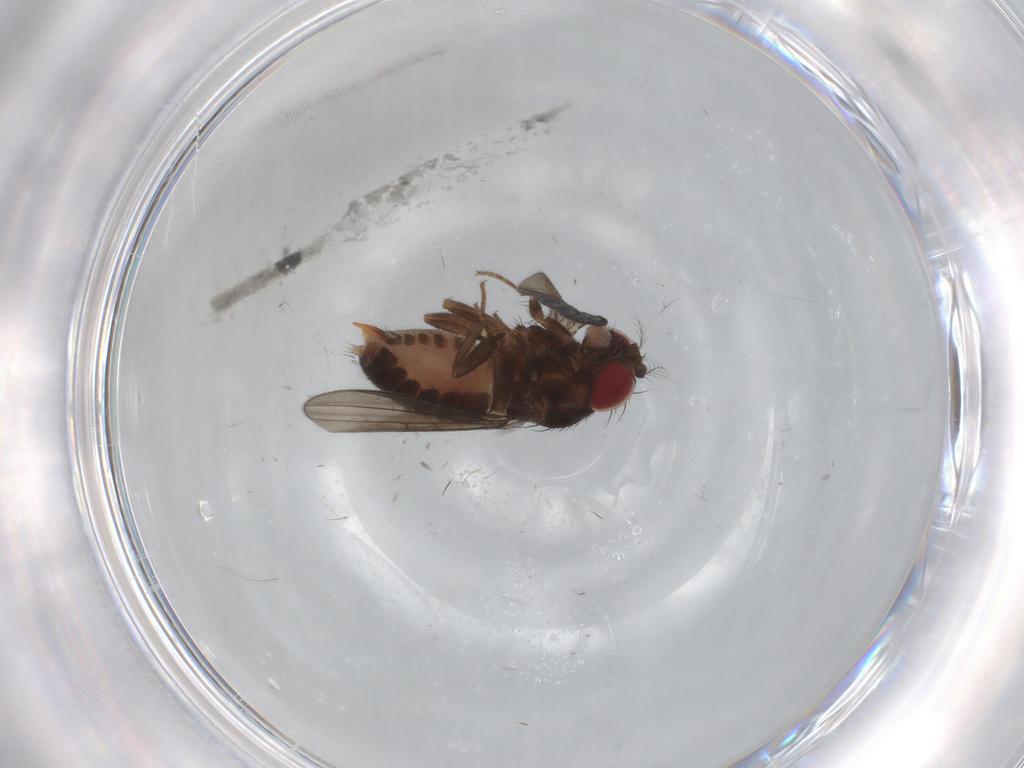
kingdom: Animalia
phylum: Arthropoda
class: Insecta
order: Diptera
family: Drosophilidae
